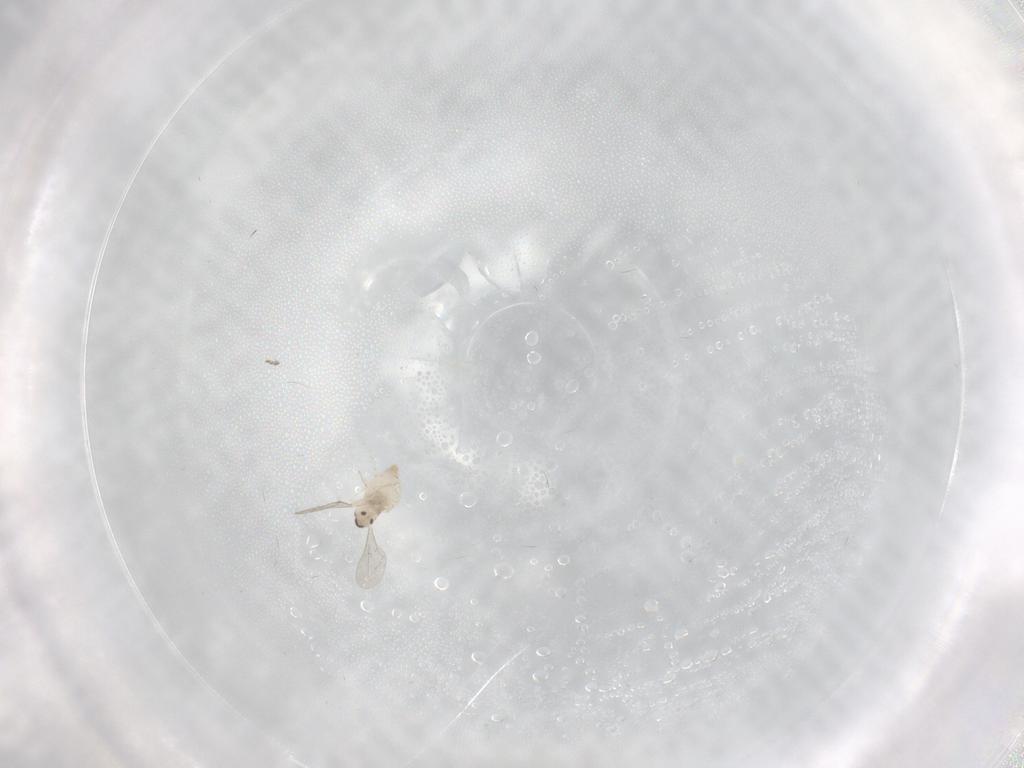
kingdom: Animalia
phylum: Arthropoda
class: Insecta
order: Diptera
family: Cecidomyiidae
